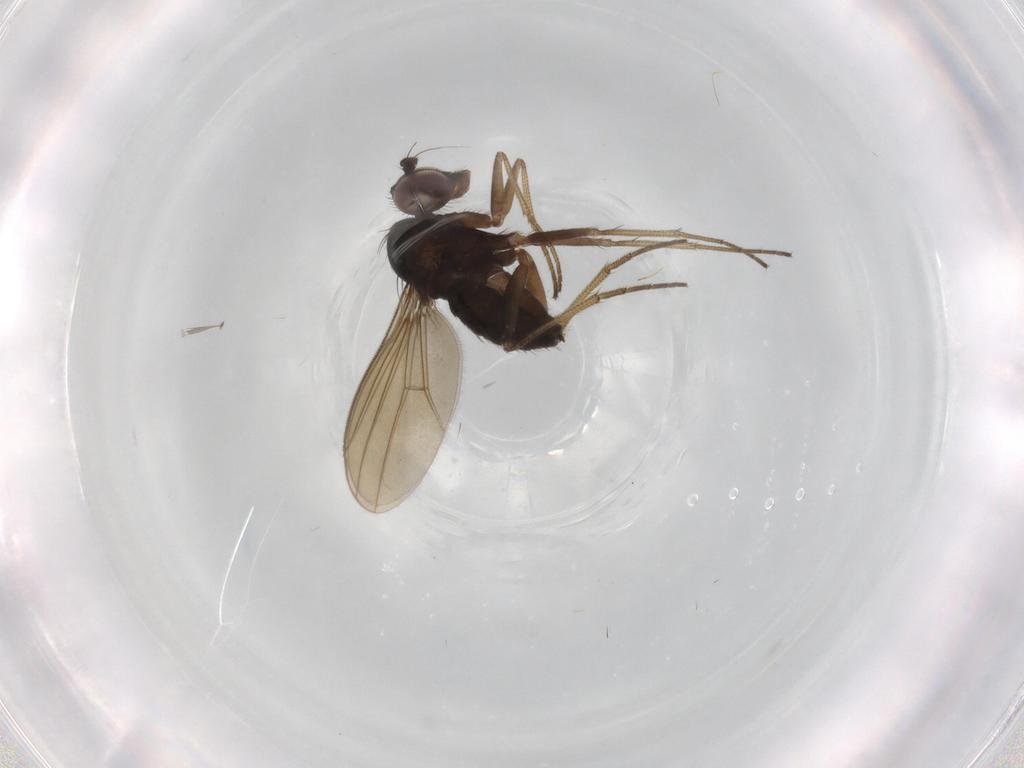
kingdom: Animalia
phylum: Arthropoda
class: Insecta
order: Diptera
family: Dolichopodidae
